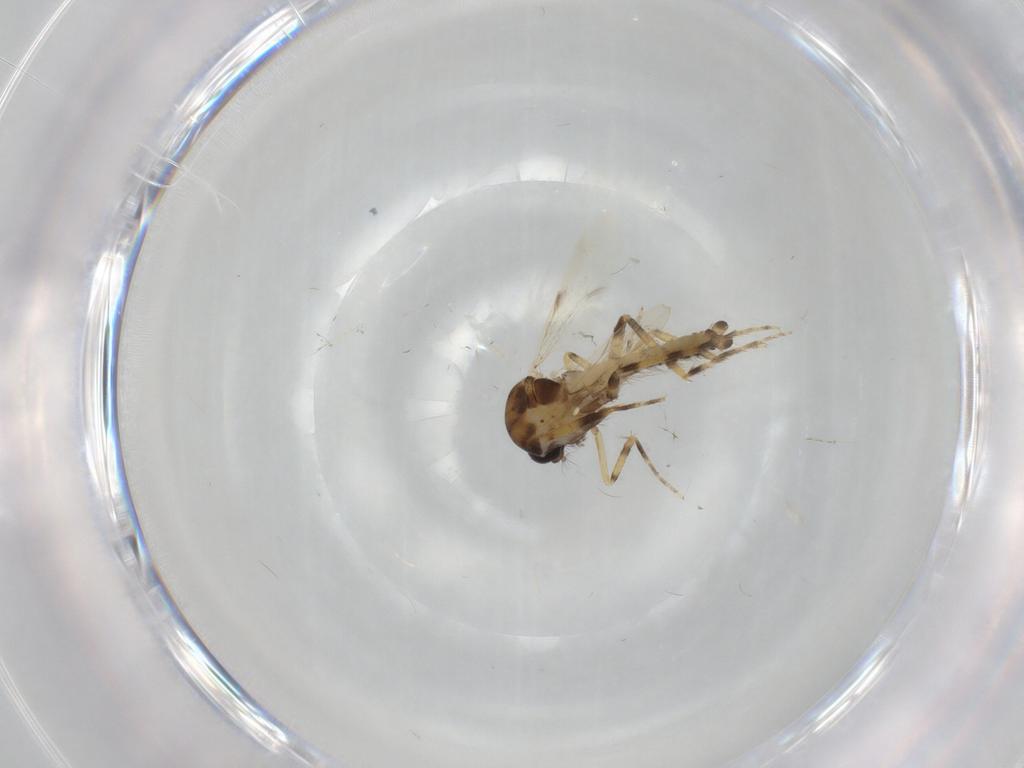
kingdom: Animalia
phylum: Arthropoda
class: Insecta
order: Diptera
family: Ceratopogonidae
